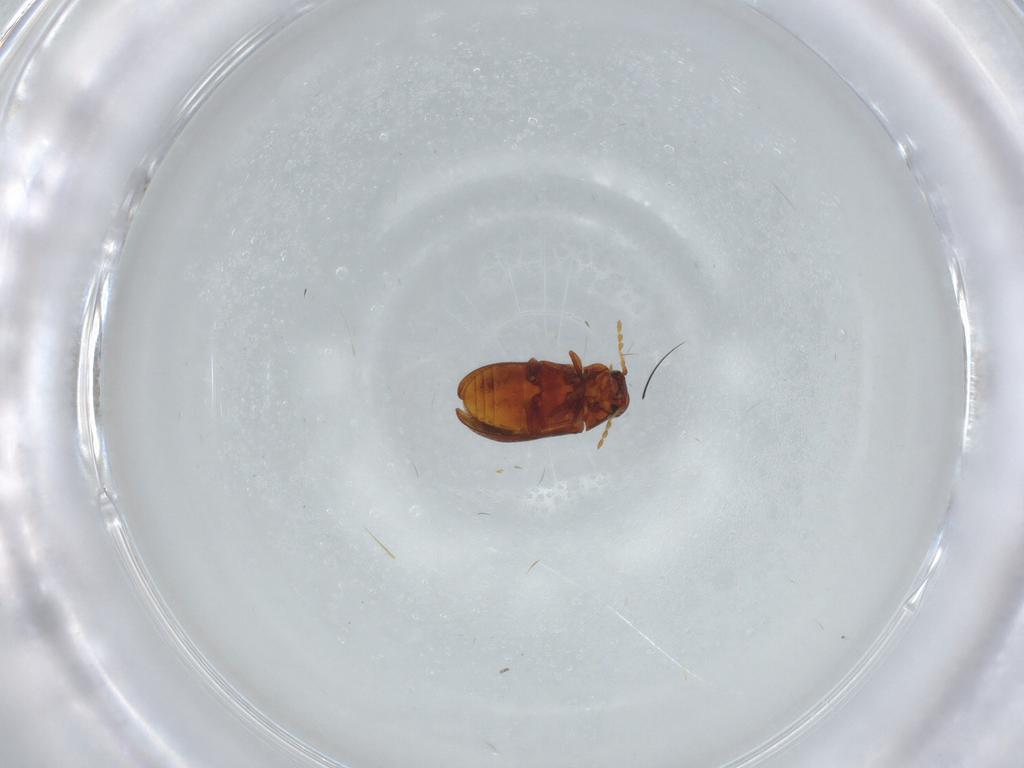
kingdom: Animalia
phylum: Arthropoda
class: Insecta
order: Coleoptera
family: Ptinidae
